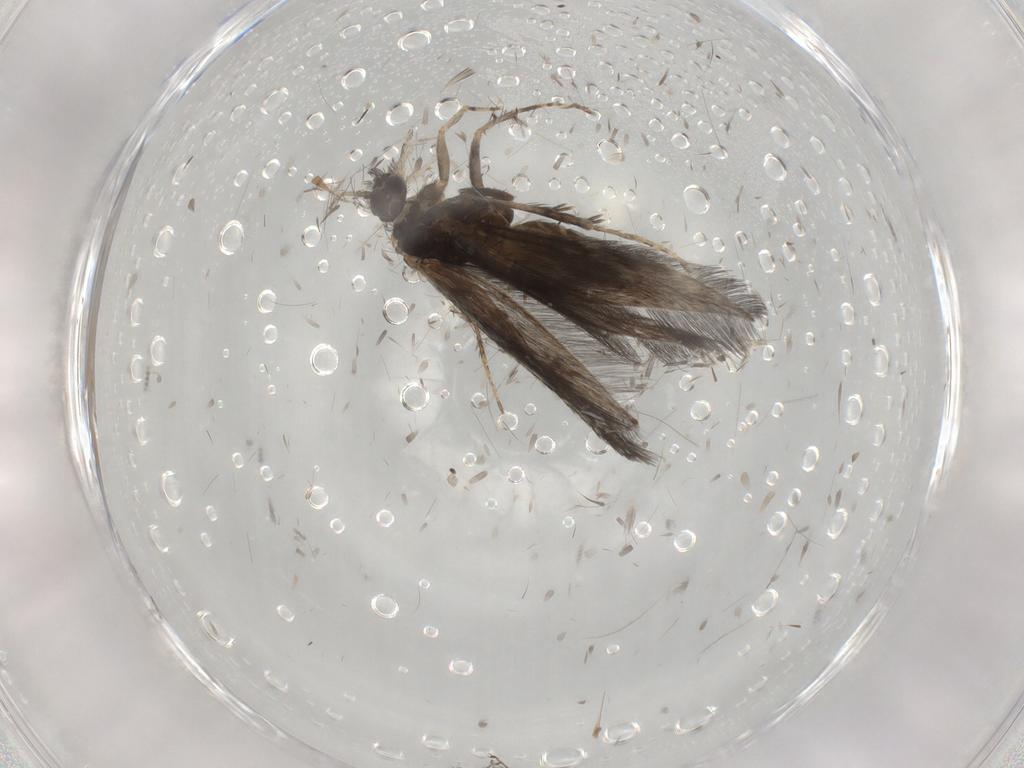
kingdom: Animalia
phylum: Arthropoda
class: Insecta
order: Trichoptera
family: Hydroptilidae
